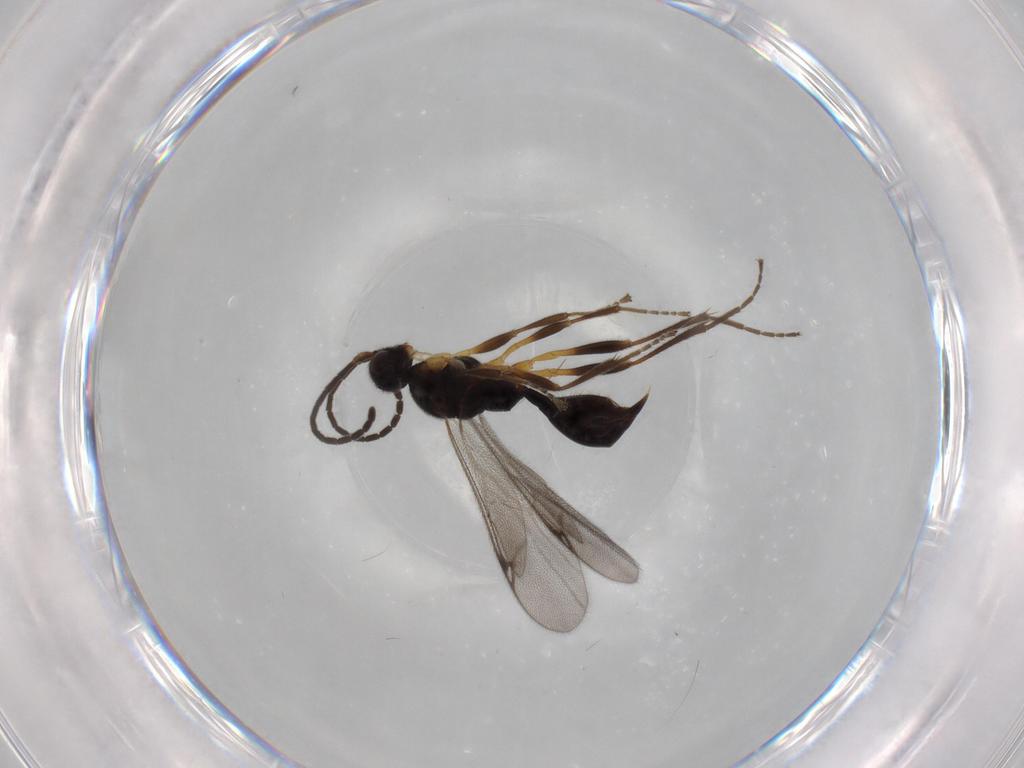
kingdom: Animalia
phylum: Arthropoda
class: Insecta
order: Hymenoptera
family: Proctotrupidae
